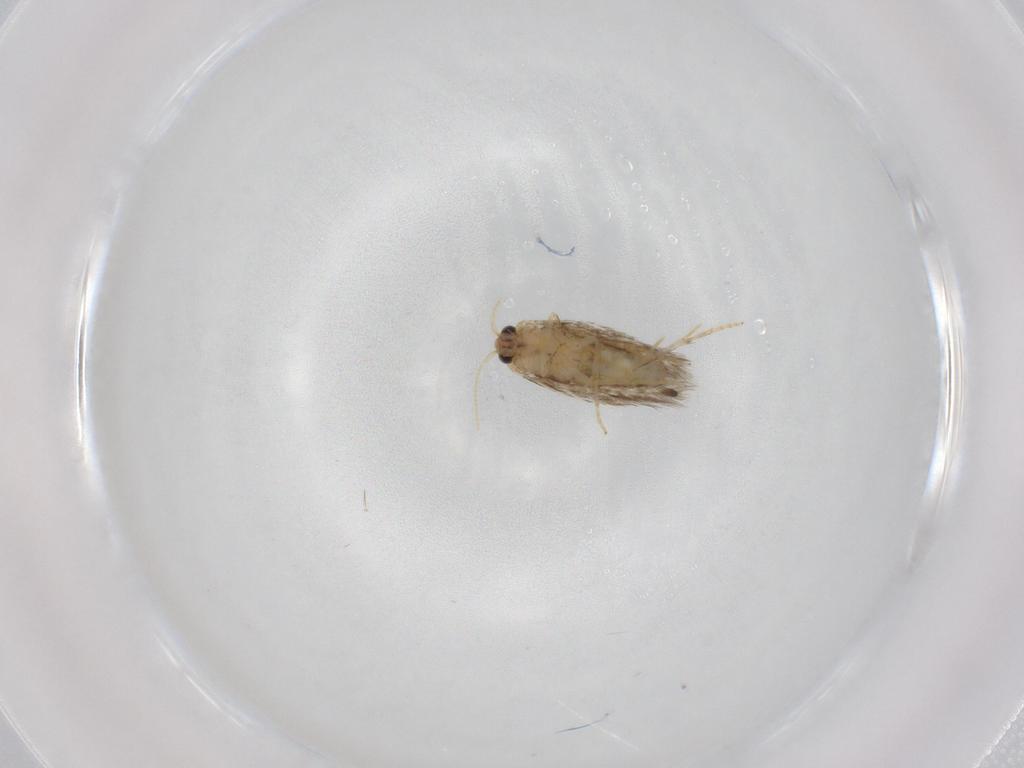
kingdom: Animalia
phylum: Arthropoda
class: Insecta
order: Lepidoptera
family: Copromorphidae
